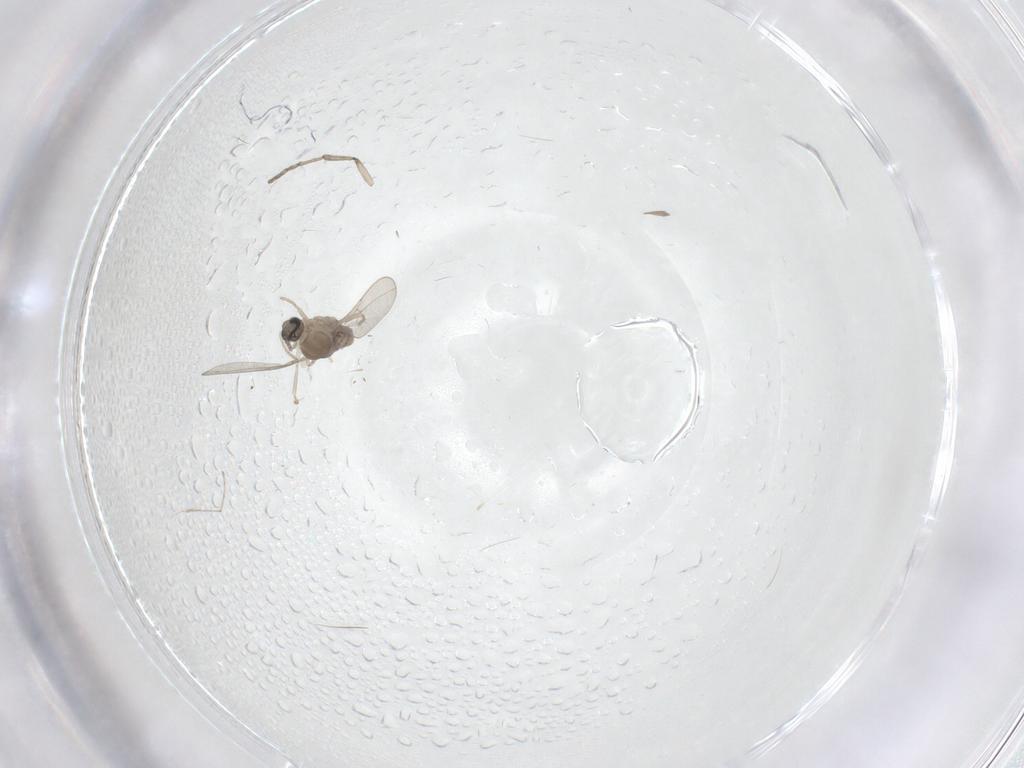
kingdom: Animalia
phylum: Arthropoda
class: Insecta
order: Diptera
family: Cecidomyiidae
